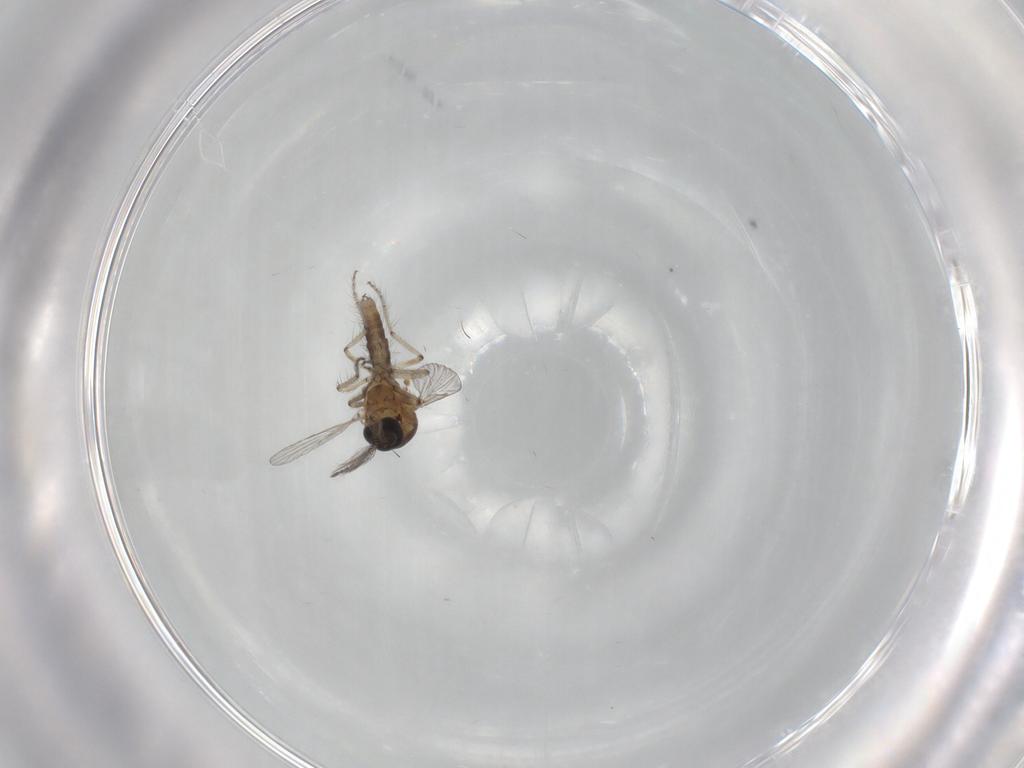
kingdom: Animalia
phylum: Arthropoda
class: Insecta
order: Diptera
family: Ceratopogonidae
